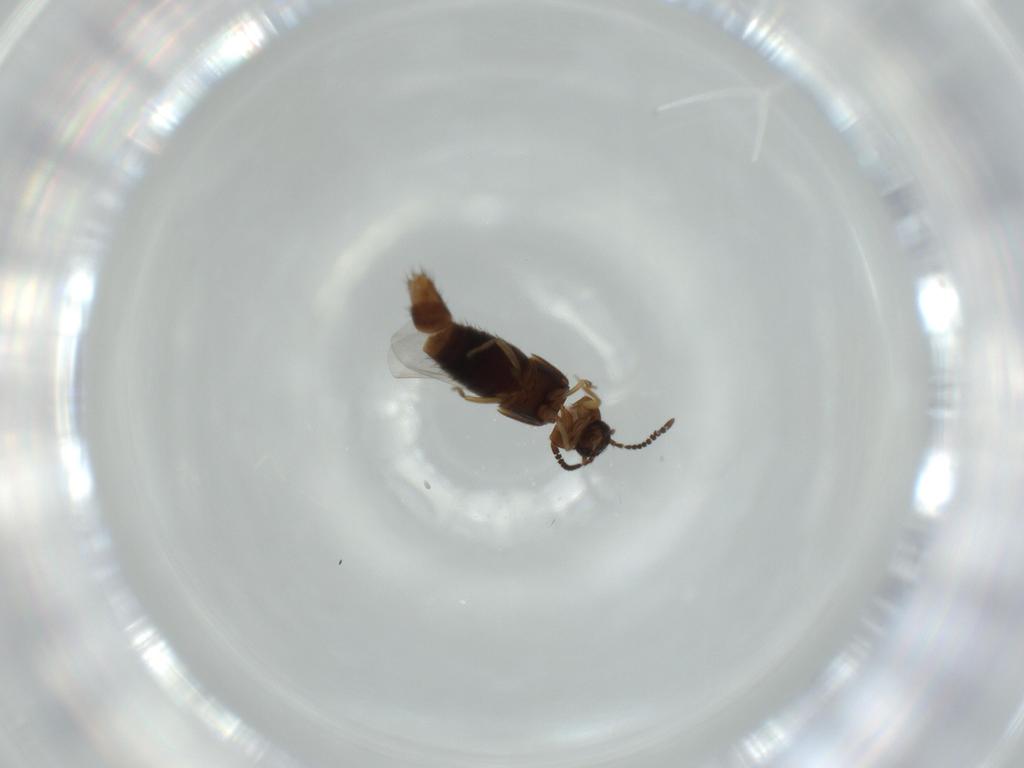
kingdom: Animalia
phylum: Arthropoda
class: Insecta
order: Coleoptera
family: Staphylinidae
